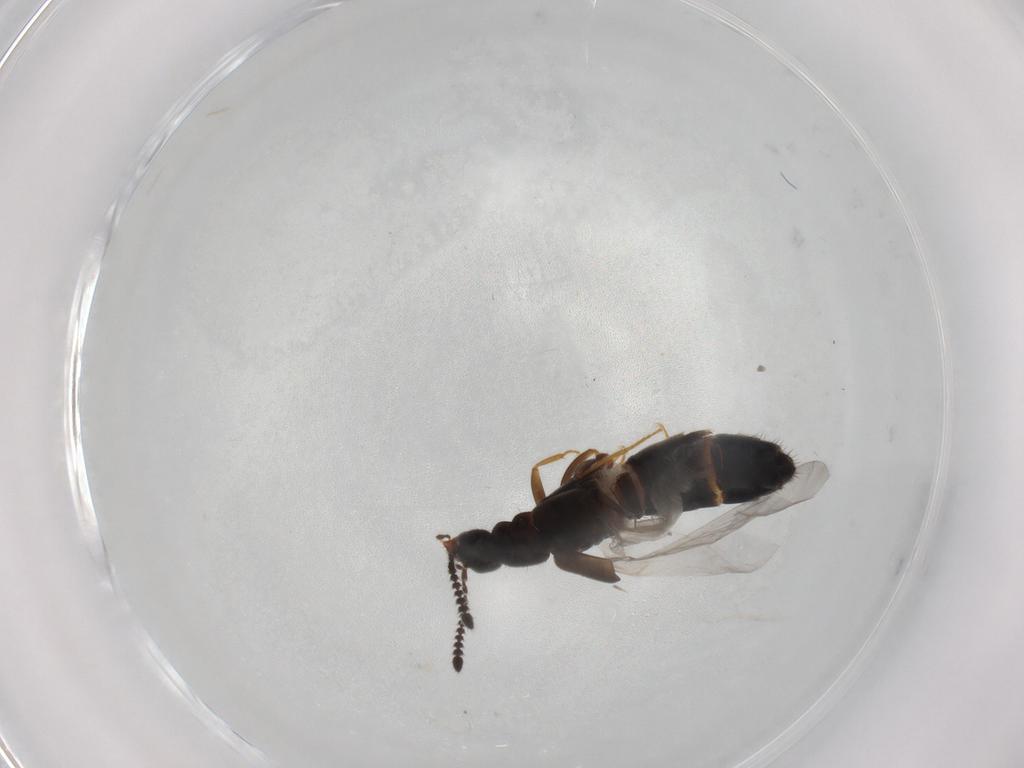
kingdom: Animalia
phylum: Arthropoda
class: Insecta
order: Coleoptera
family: Staphylinidae
